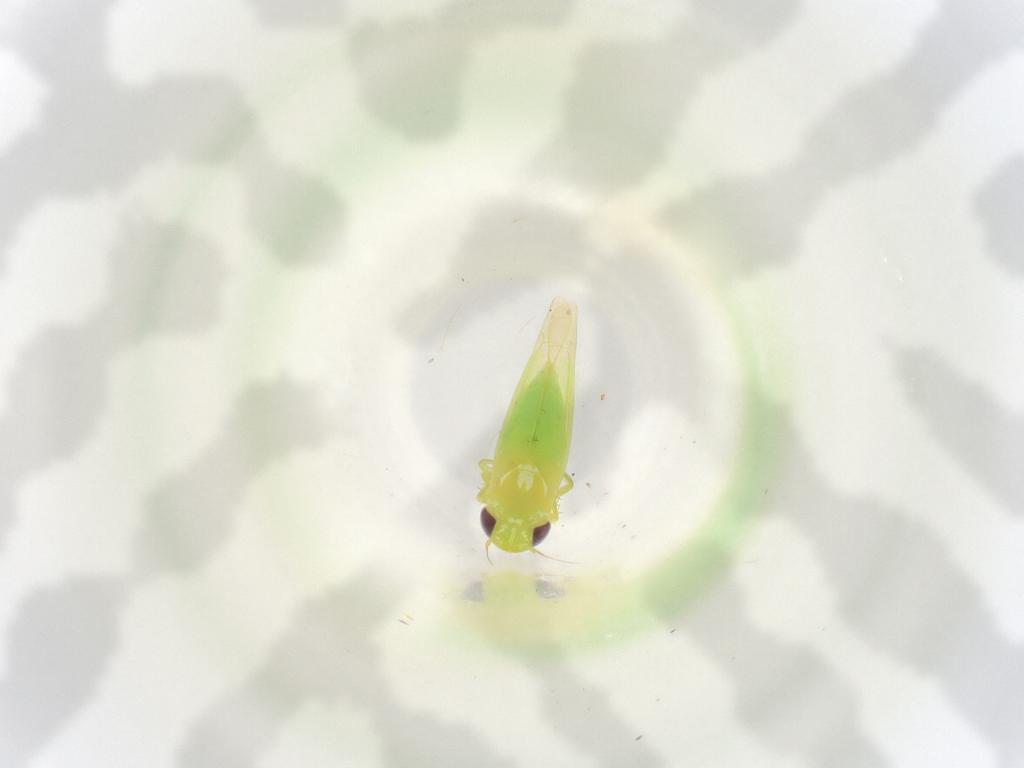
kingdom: Animalia
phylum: Arthropoda
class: Insecta
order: Hemiptera
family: Cicadellidae
